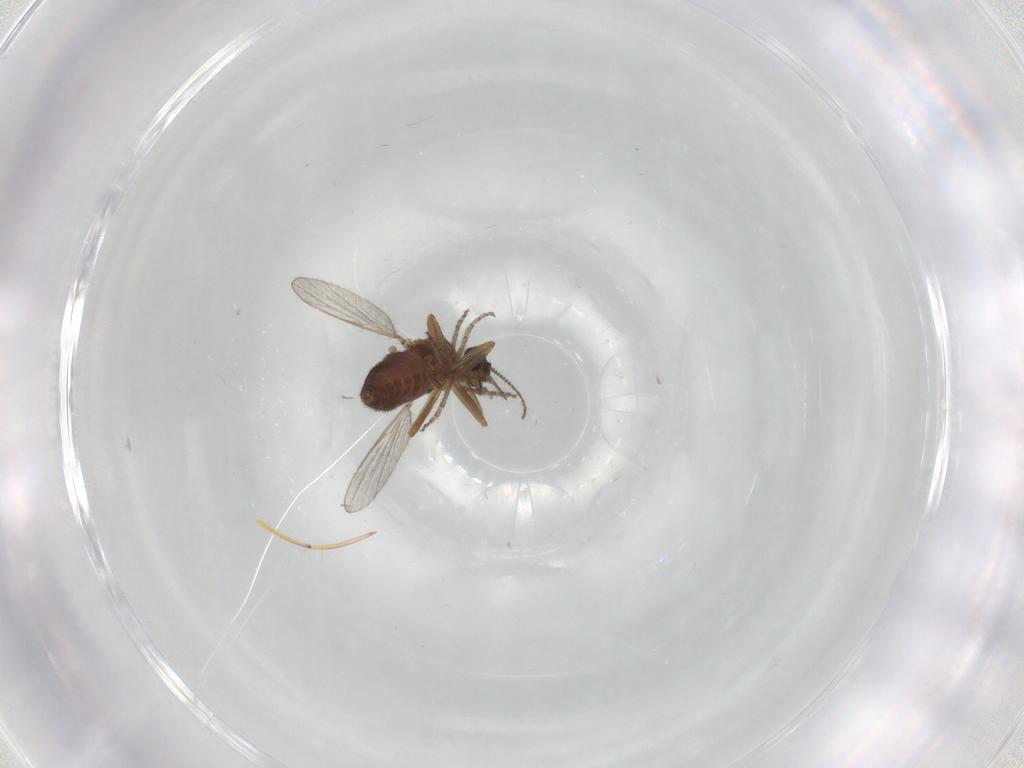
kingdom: Animalia
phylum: Arthropoda
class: Insecta
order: Diptera
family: Ceratopogonidae
